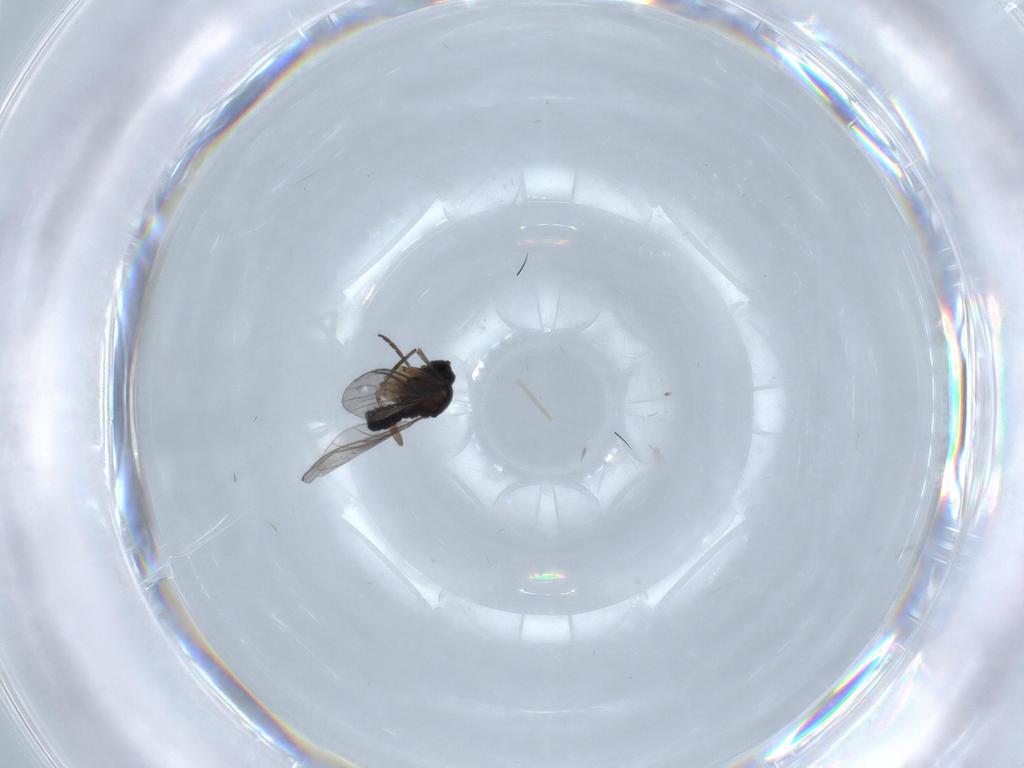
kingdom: Animalia
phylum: Arthropoda
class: Insecta
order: Diptera
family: Sciaridae
